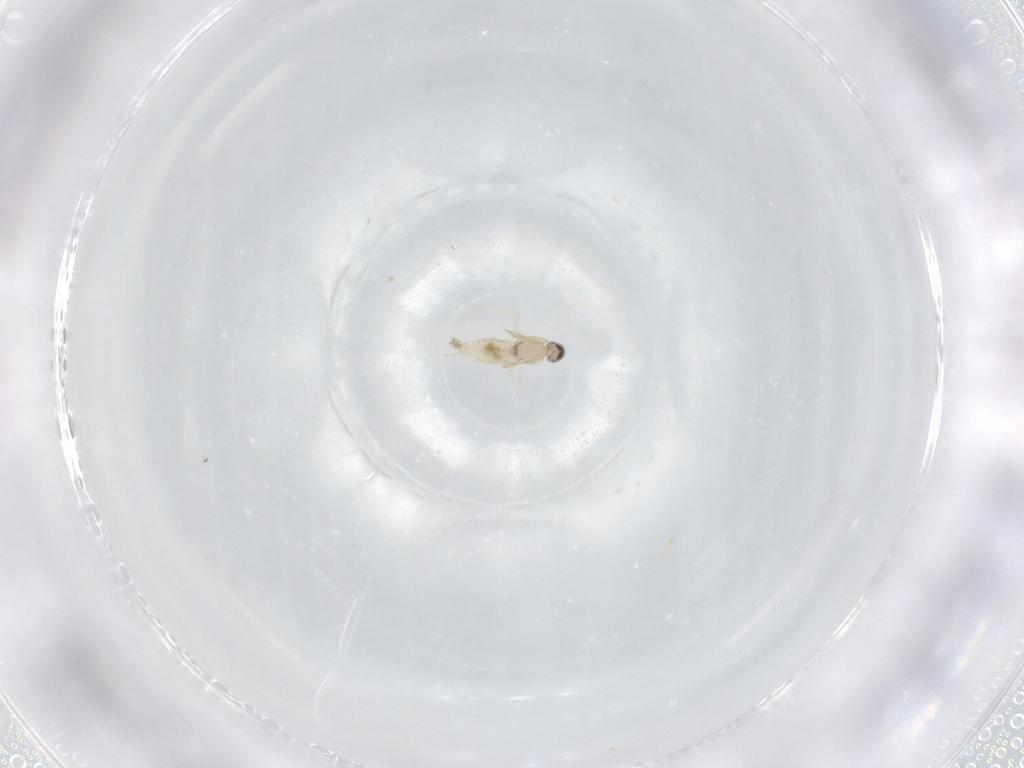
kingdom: Animalia
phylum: Arthropoda
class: Insecta
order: Diptera
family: Cecidomyiidae
